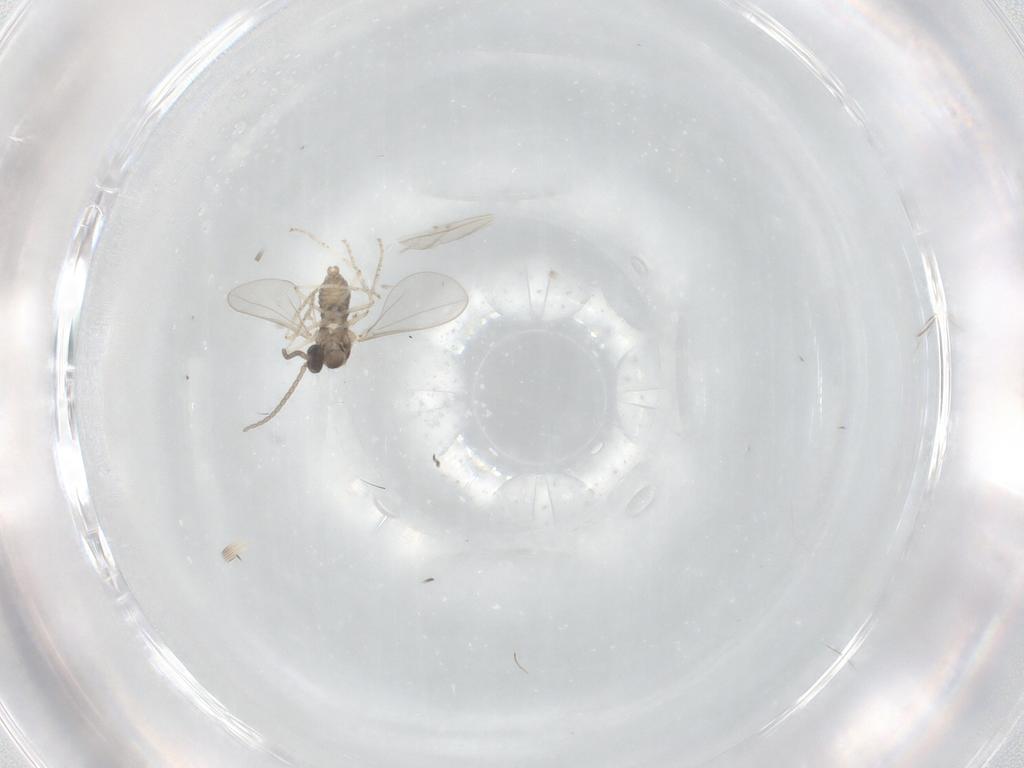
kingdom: Animalia
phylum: Arthropoda
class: Insecta
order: Diptera
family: Cecidomyiidae
